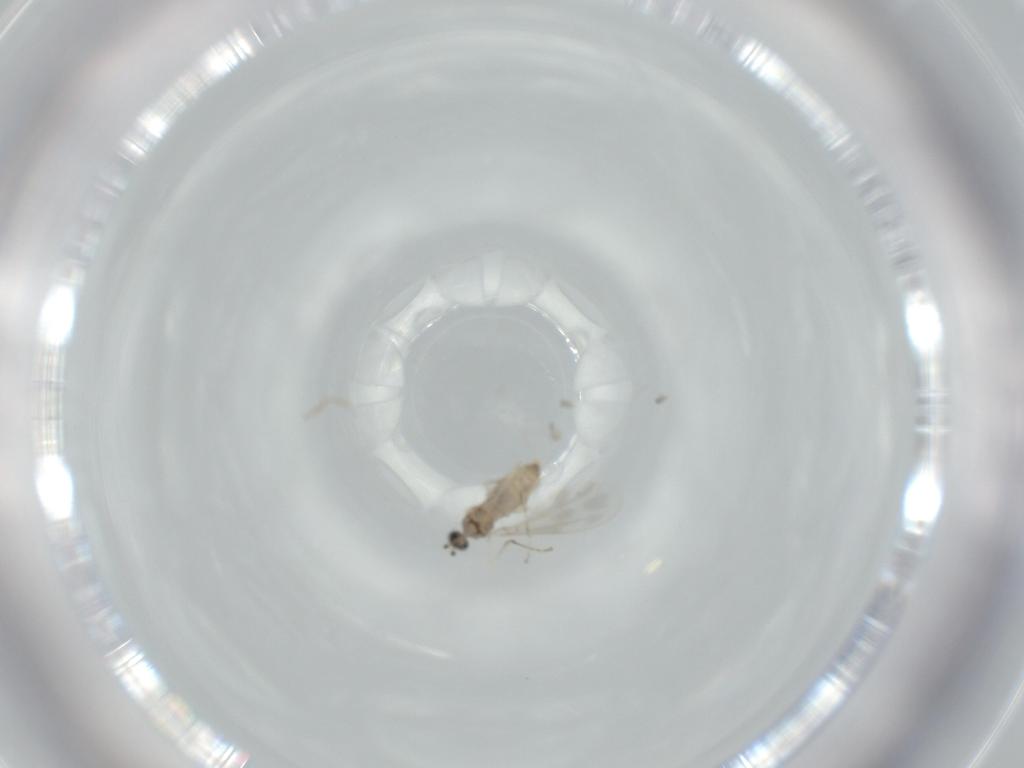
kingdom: Animalia
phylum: Arthropoda
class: Insecta
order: Diptera
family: Cecidomyiidae
